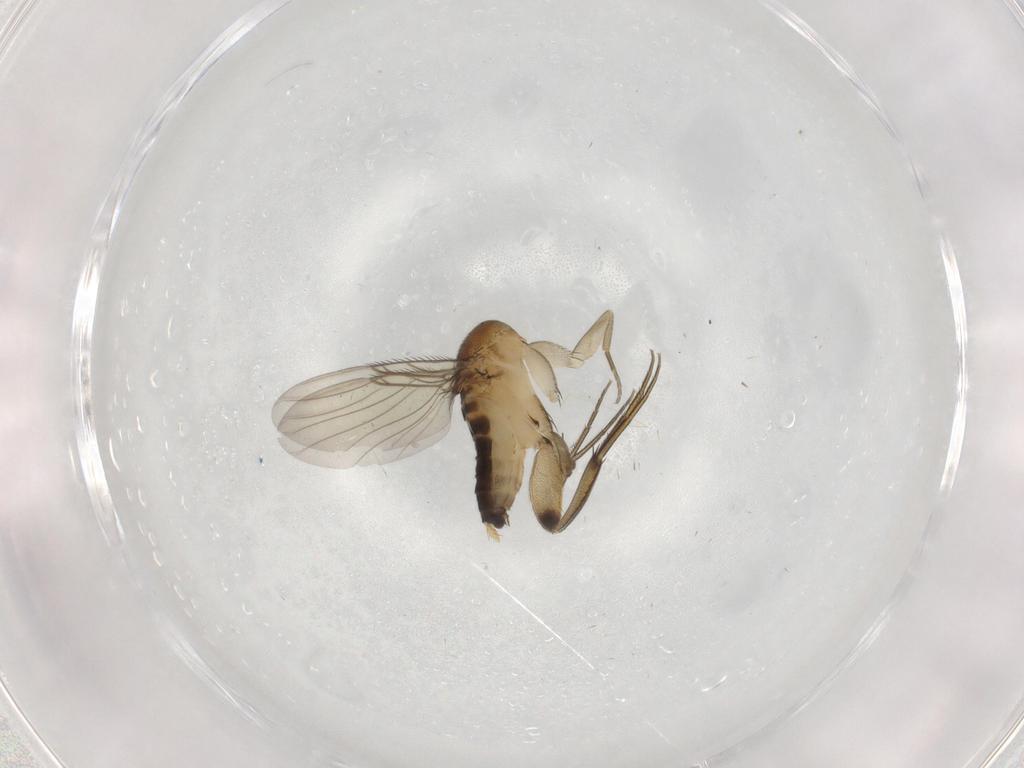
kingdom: Animalia
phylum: Arthropoda
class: Insecta
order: Diptera
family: Phoridae
